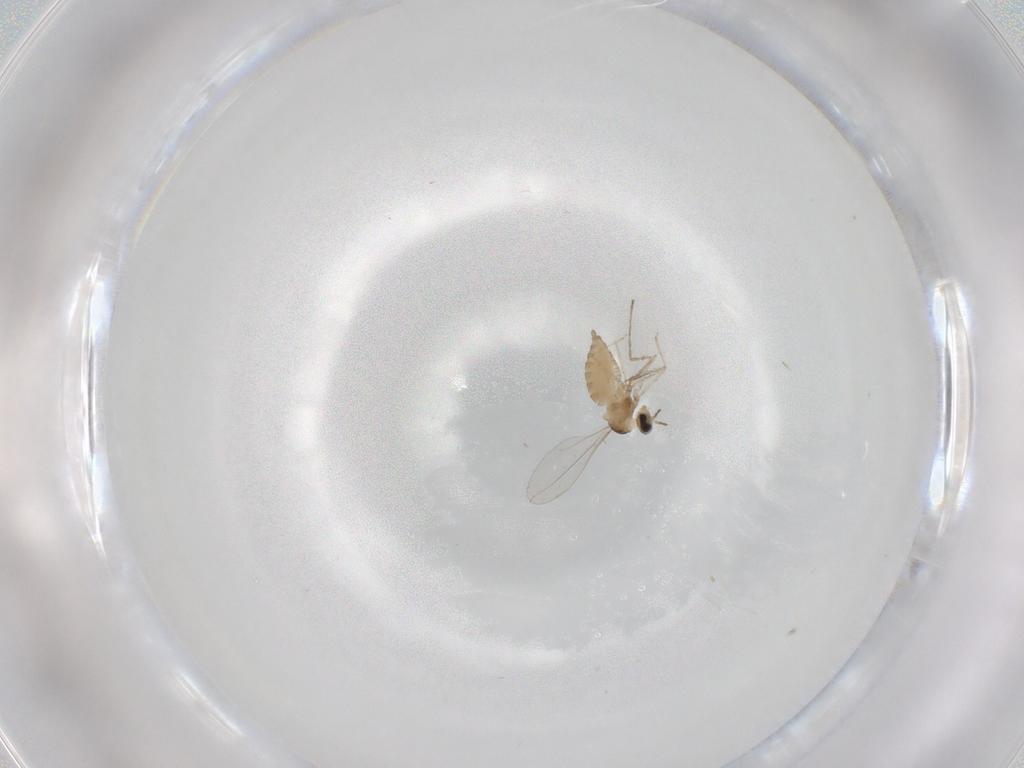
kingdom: Animalia
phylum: Arthropoda
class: Insecta
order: Diptera
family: Cecidomyiidae
